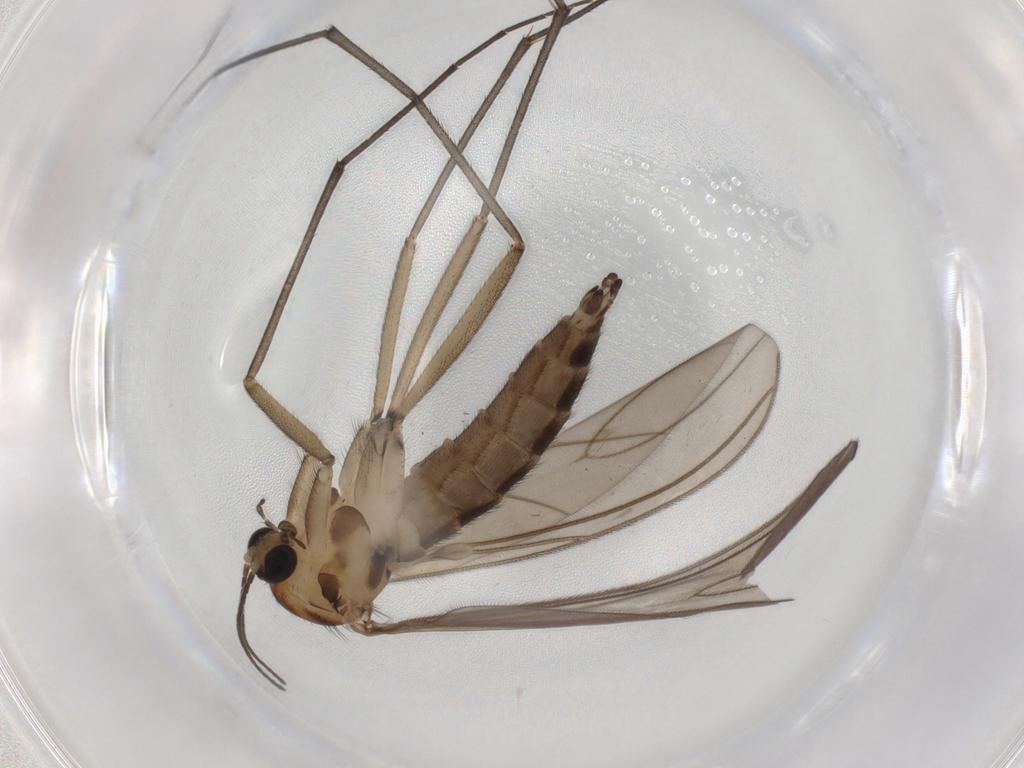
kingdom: Animalia
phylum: Arthropoda
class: Insecta
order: Diptera
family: Sciaridae
